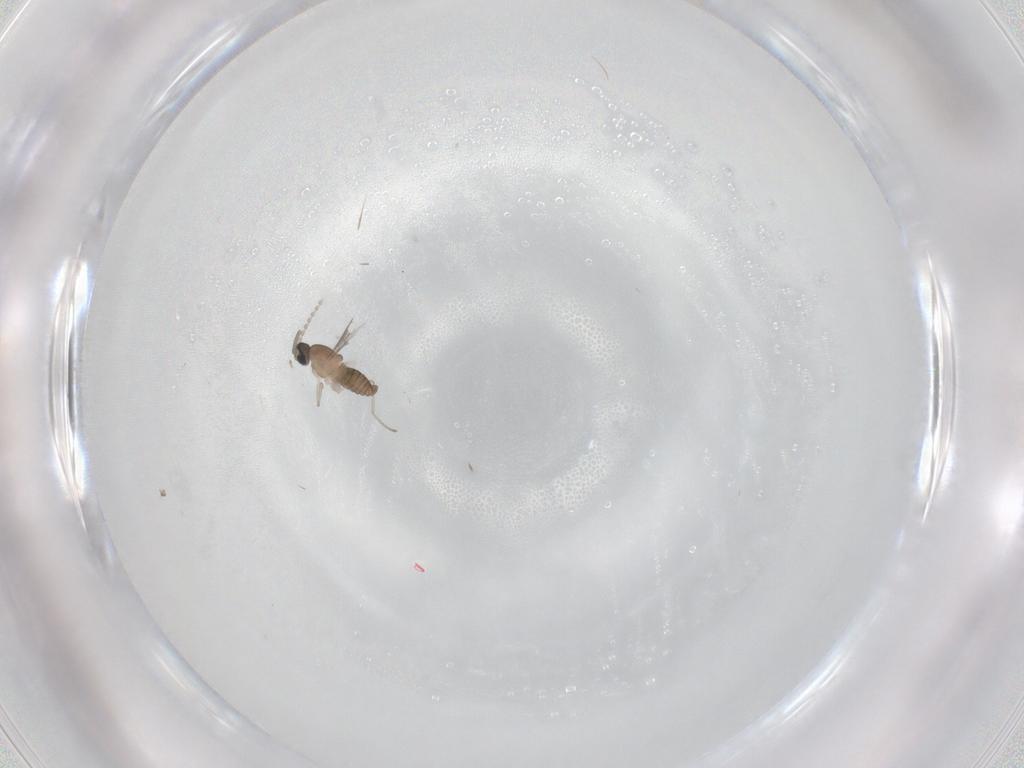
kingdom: Animalia
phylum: Arthropoda
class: Insecta
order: Diptera
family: Cecidomyiidae
